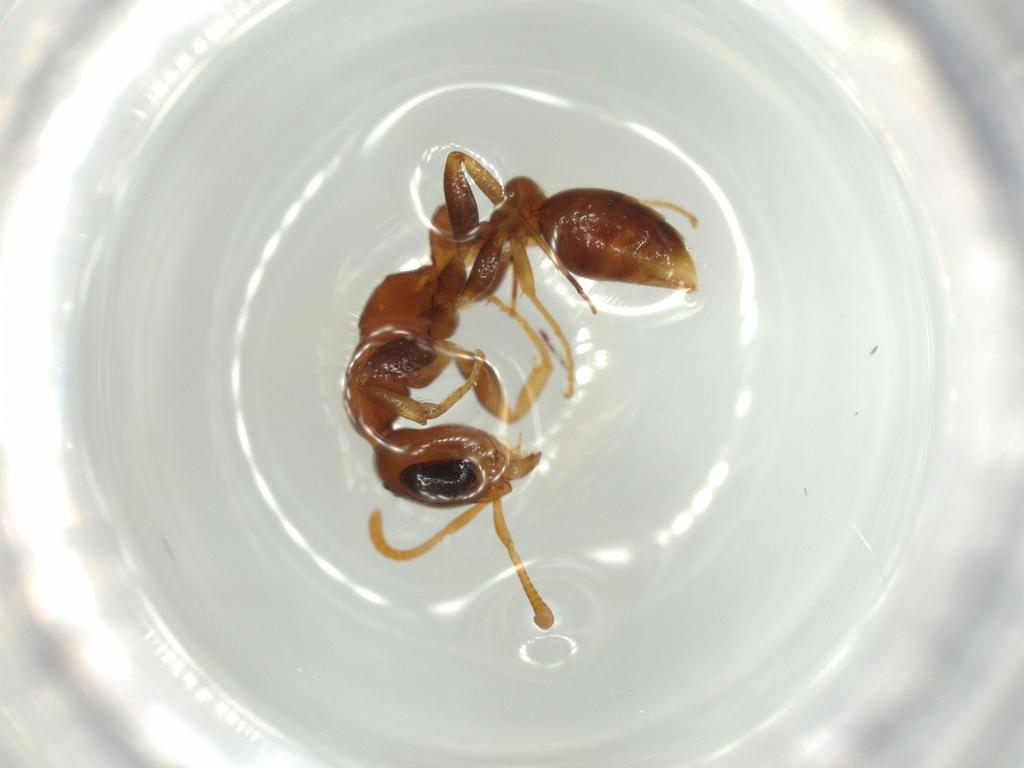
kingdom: Animalia
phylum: Arthropoda
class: Insecta
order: Hymenoptera
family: Formicidae
